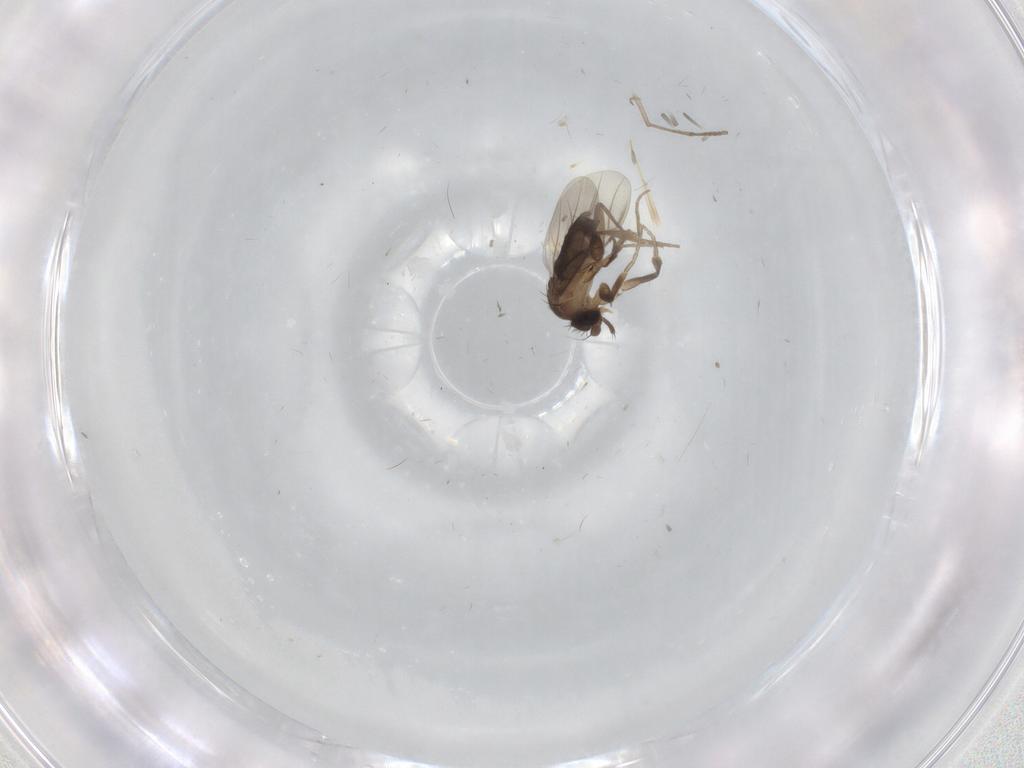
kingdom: Animalia
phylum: Arthropoda
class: Insecta
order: Diptera
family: Phoridae
